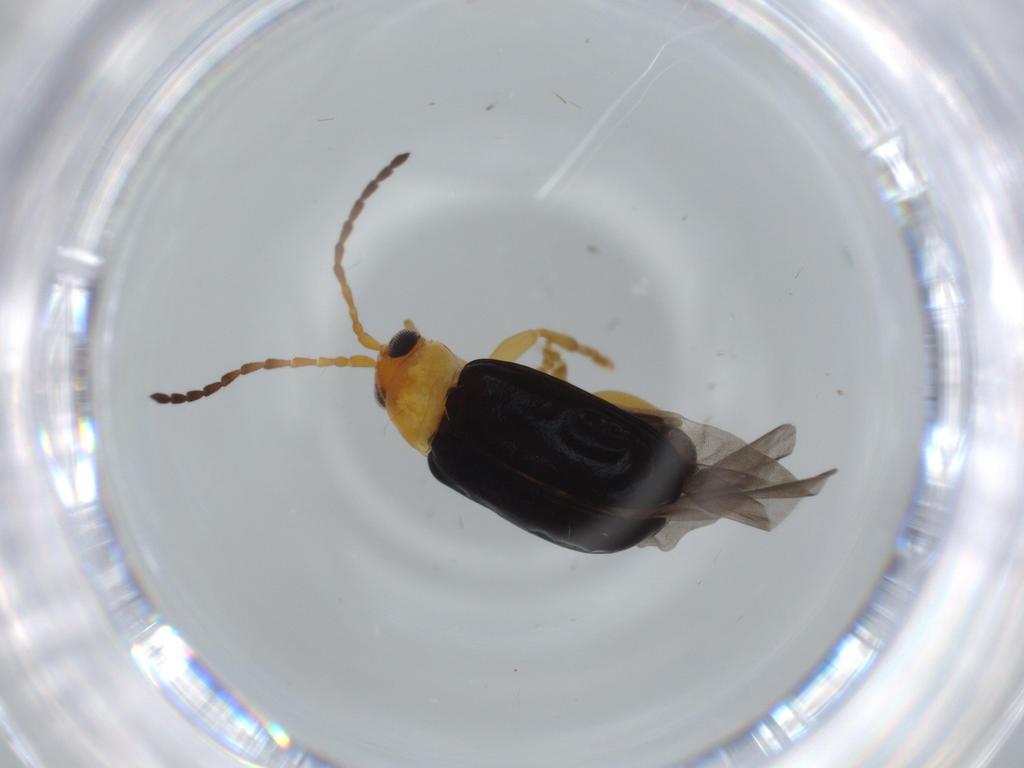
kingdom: Animalia
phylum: Arthropoda
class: Insecta
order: Coleoptera
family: Chrysomelidae
